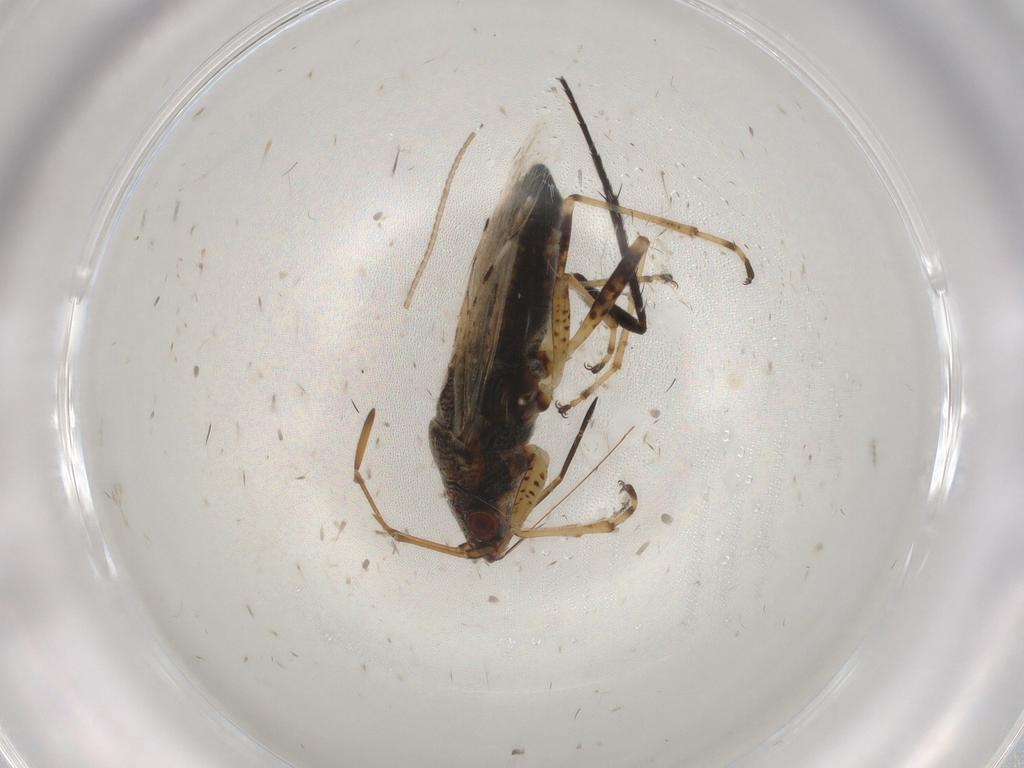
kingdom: Animalia
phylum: Arthropoda
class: Insecta
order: Hemiptera
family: Lygaeidae
